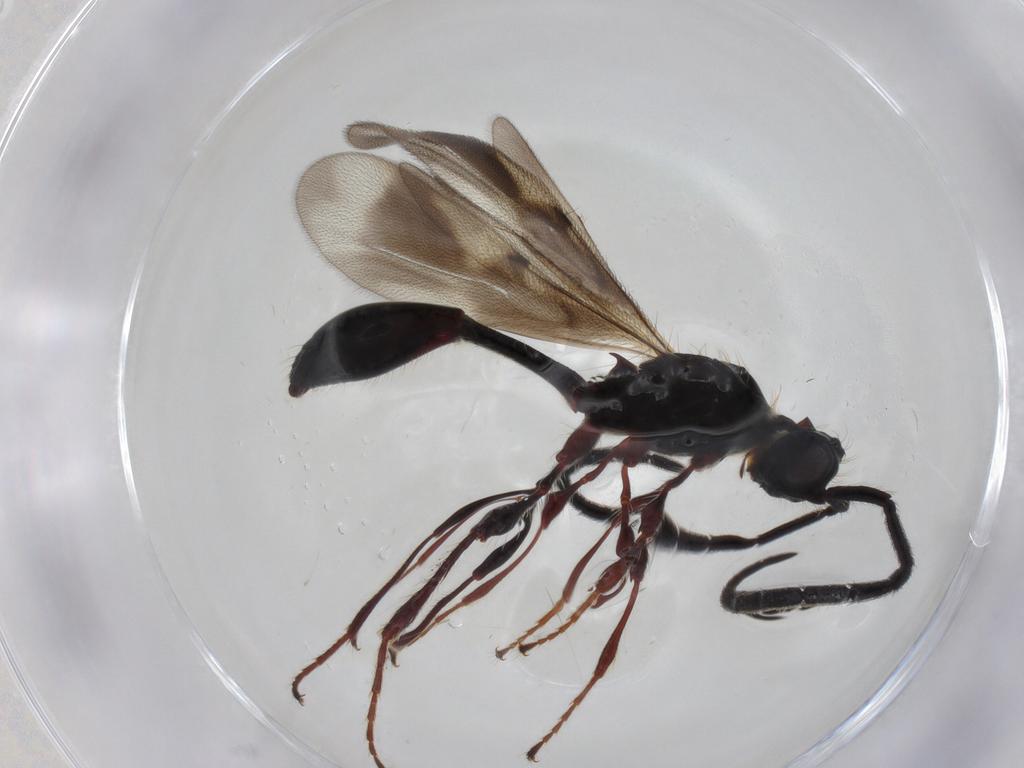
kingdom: Animalia
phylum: Arthropoda
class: Insecta
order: Hymenoptera
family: Diapriidae
